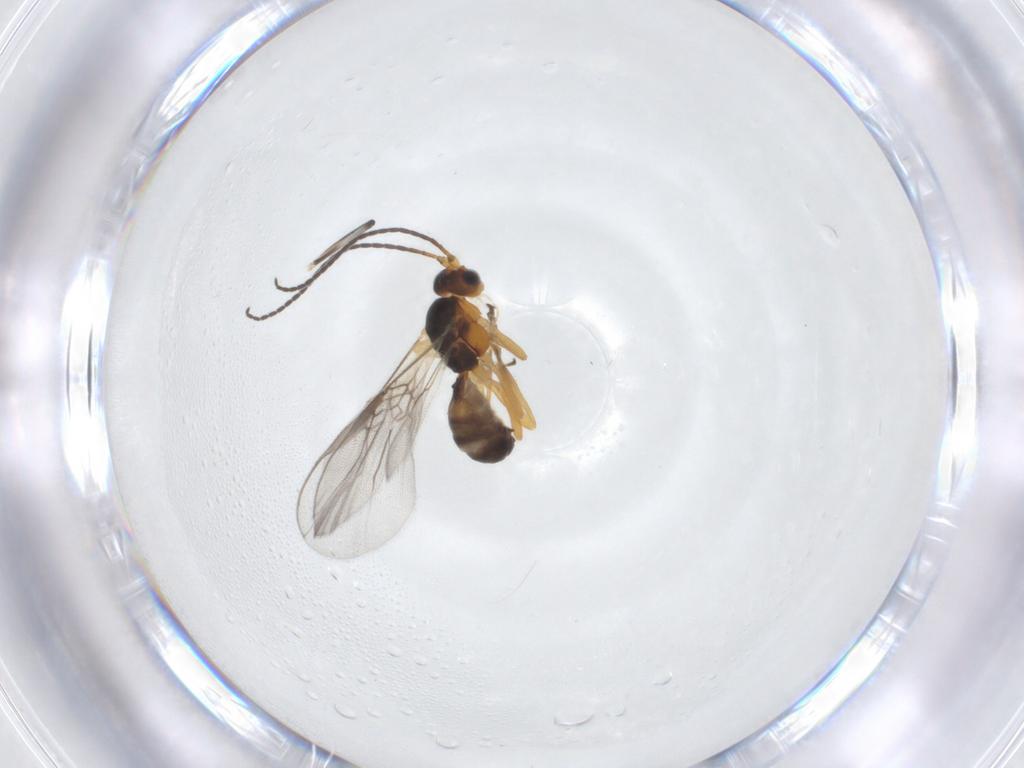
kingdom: Animalia
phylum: Arthropoda
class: Insecta
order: Hymenoptera
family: Braconidae
